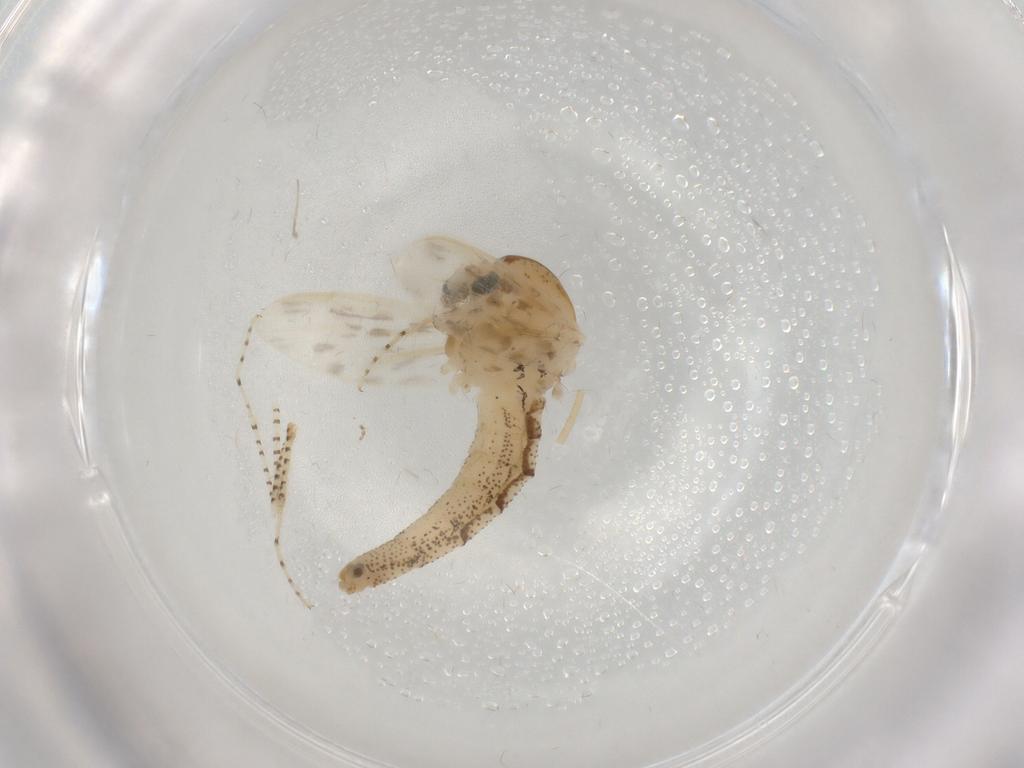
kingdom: Animalia
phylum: Arthropoda
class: Insecta
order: Diptera
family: Chaoboridae
